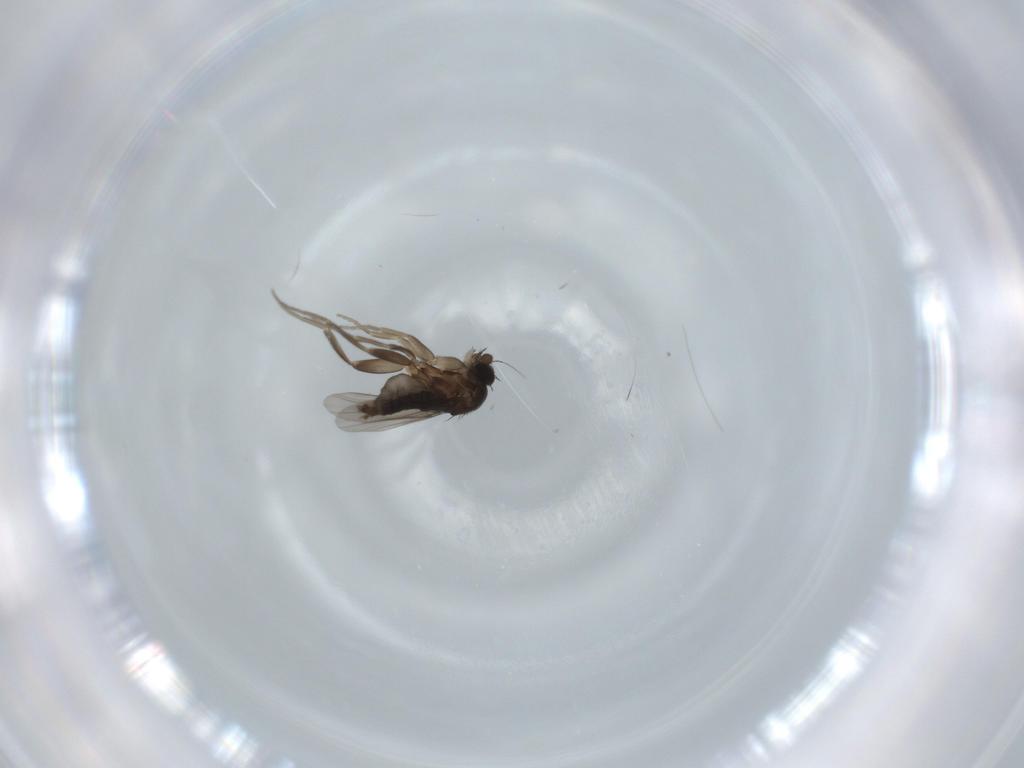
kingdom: Animalia
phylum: Arthropoda
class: Insecta
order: Diptera
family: Phoridae
